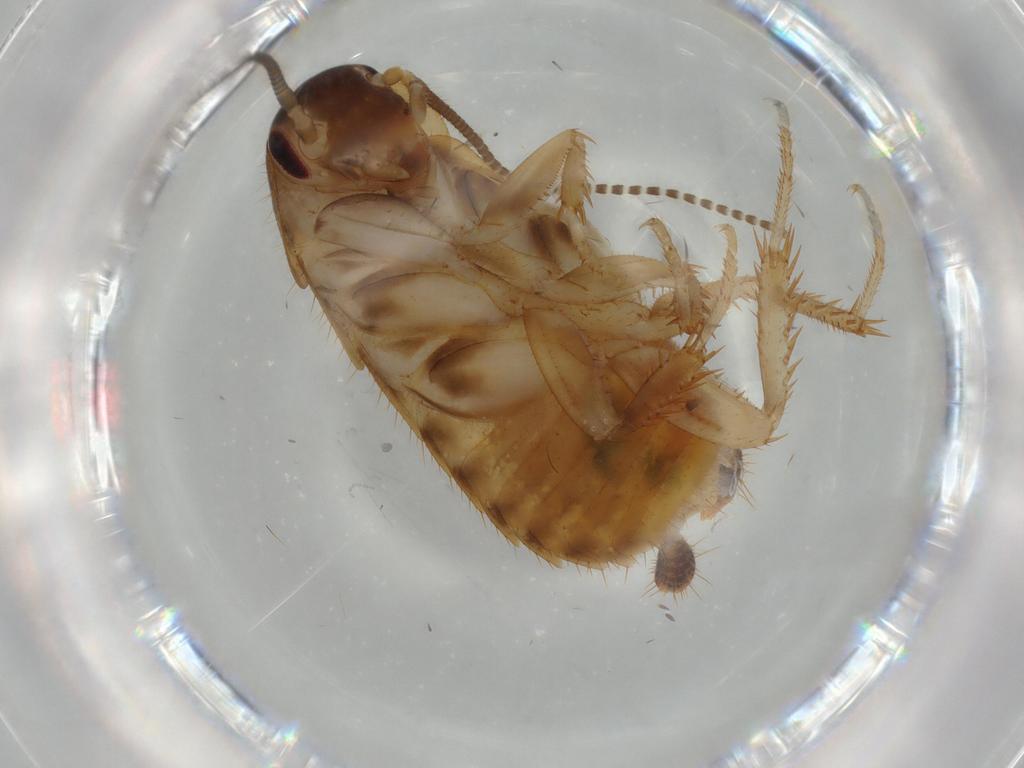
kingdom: Animalia
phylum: Arthropoda
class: Insecta
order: Blattodea
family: Ectobiidae
